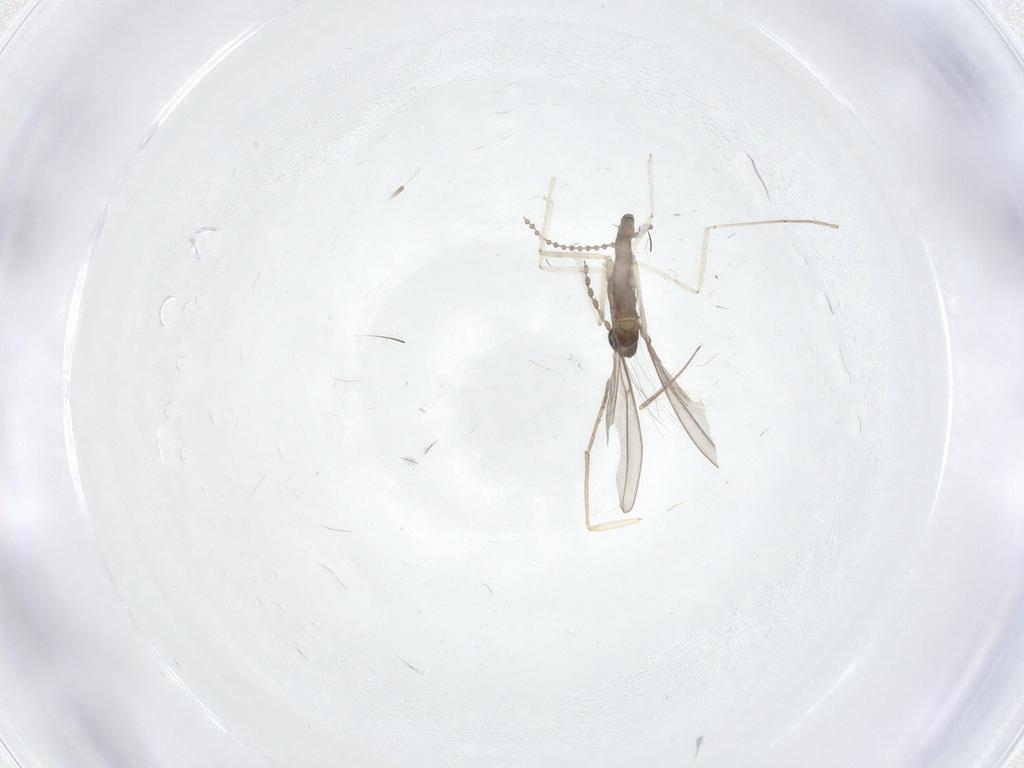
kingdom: Animalia
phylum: Arthropoda
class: Insecta
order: Diptera
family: Cecidomyiidae
